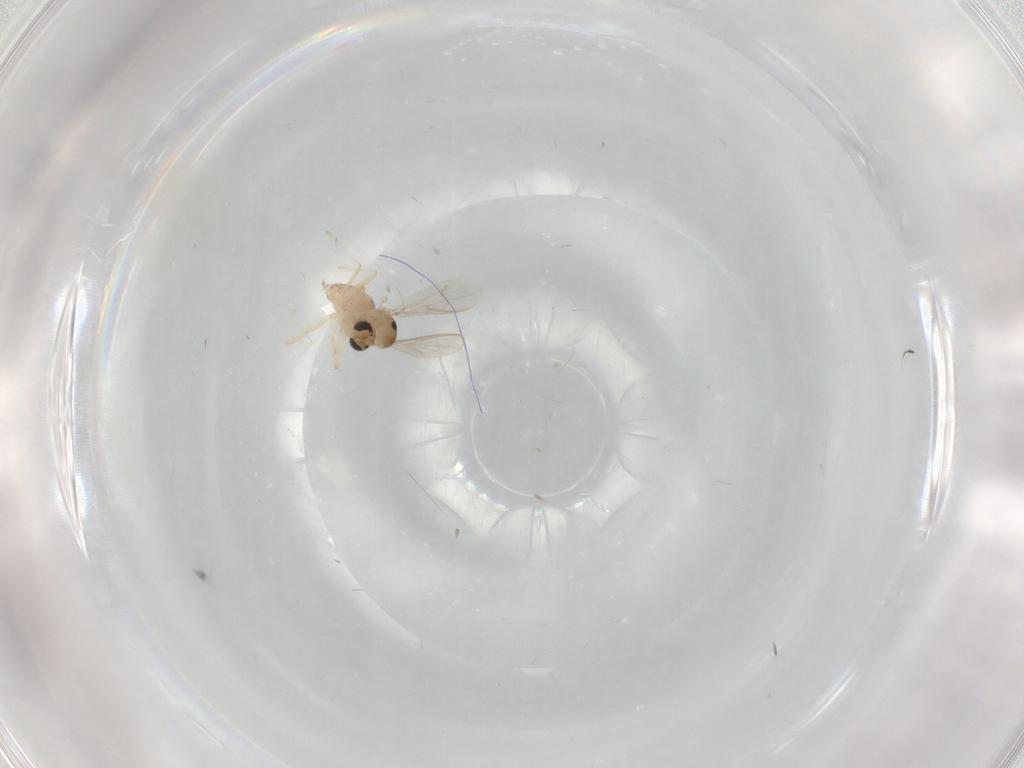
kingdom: Animalia
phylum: Arthropoda
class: Insecta
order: Diptera
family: Chironomidae
